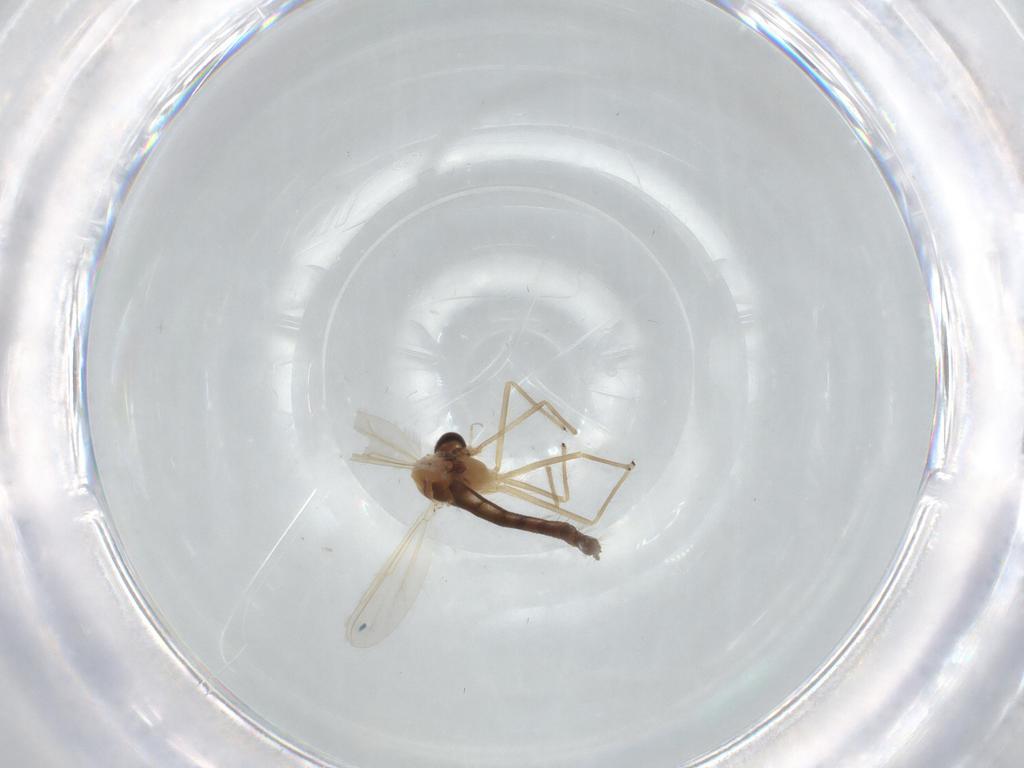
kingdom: Animalia
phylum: Arthropoda
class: Insecta
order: Diptera
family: Chironomidae
